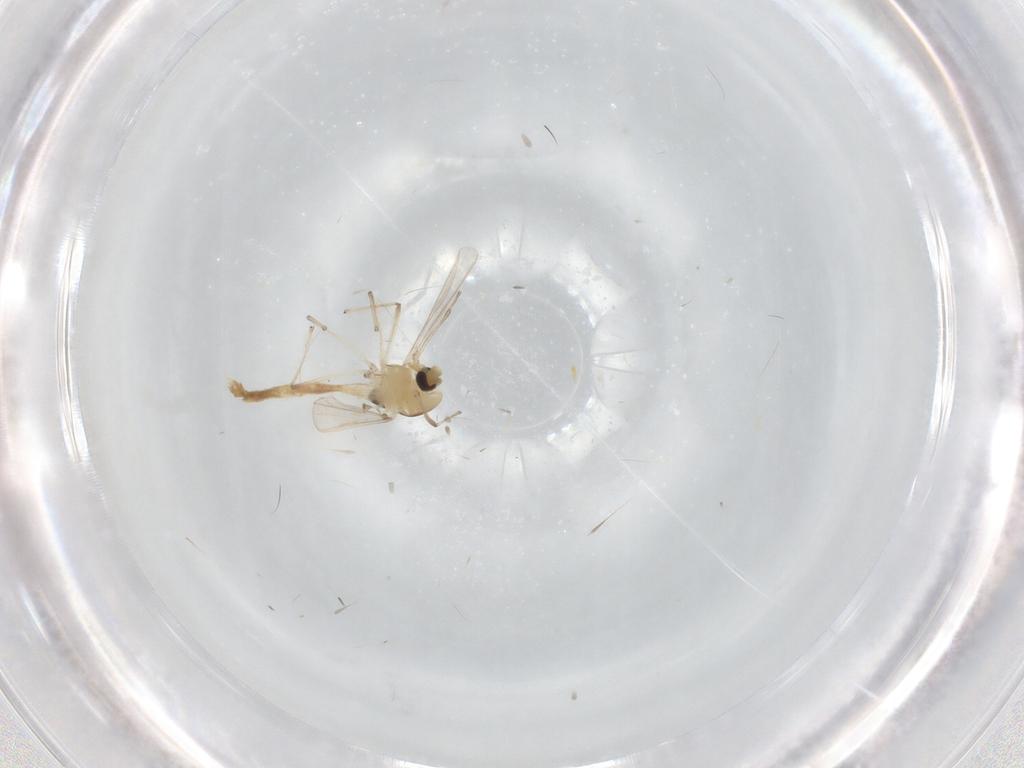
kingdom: Animalia
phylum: Arthropoda
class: Insecta
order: Diptera
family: Chironomidae
